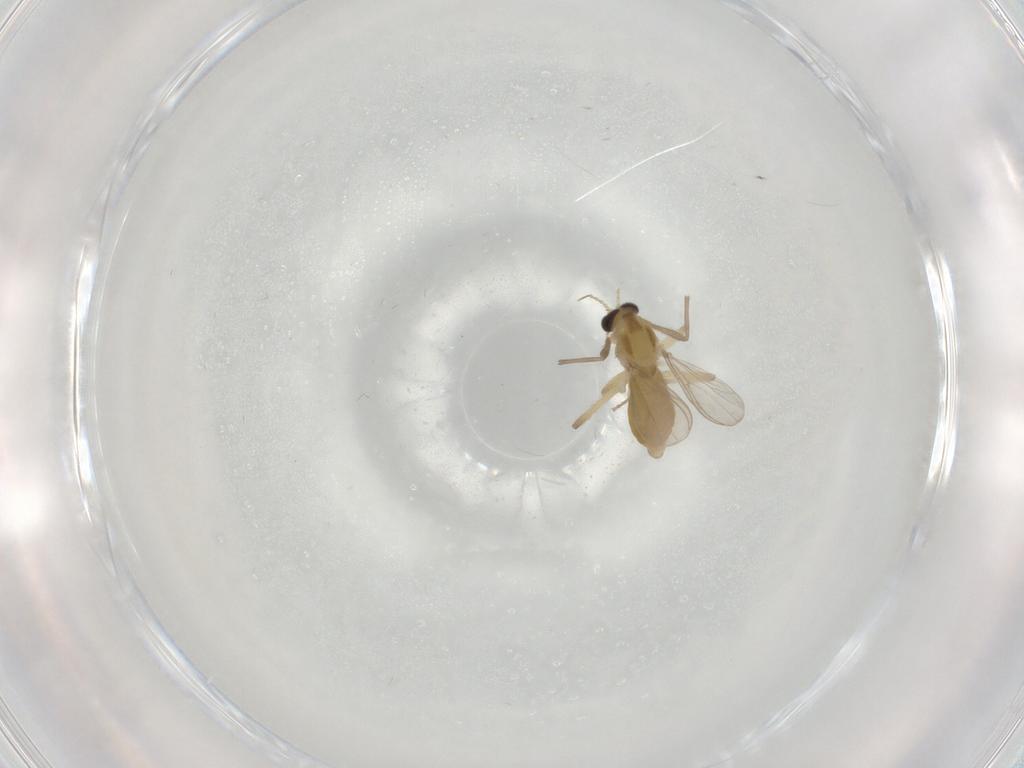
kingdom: Animalia
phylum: Arthropoda
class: Insecta
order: Diptera
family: Chironomidae
